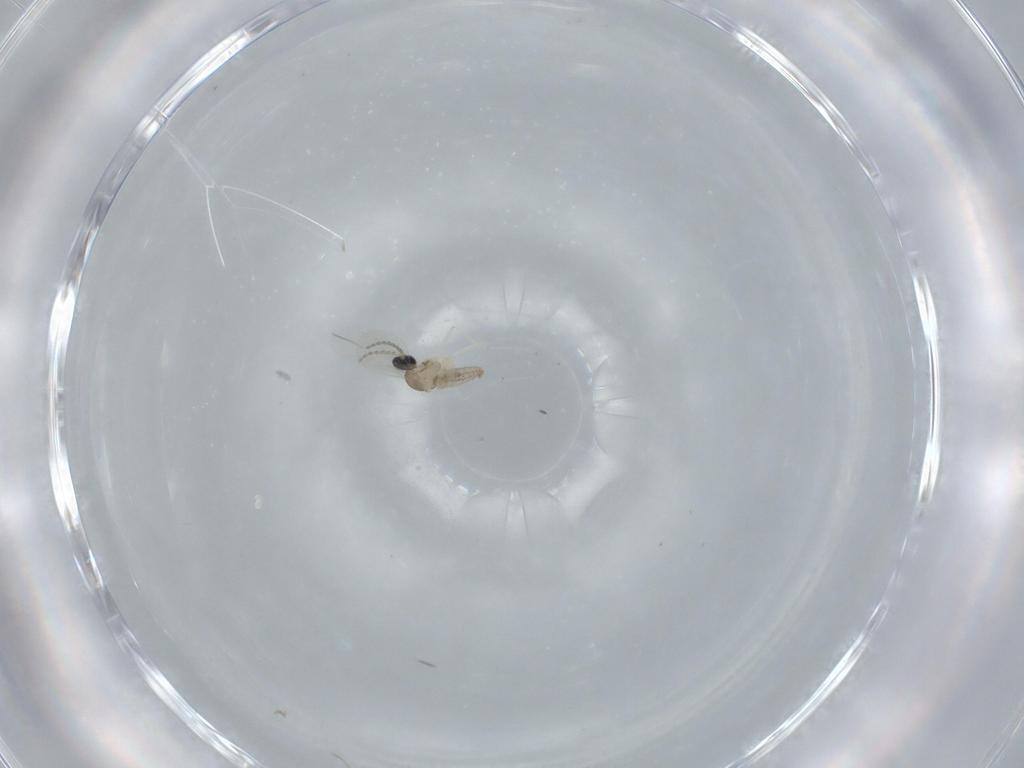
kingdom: Animalia
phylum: Arthropoda
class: Insecta
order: Diptera
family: Cecidomyiidae
